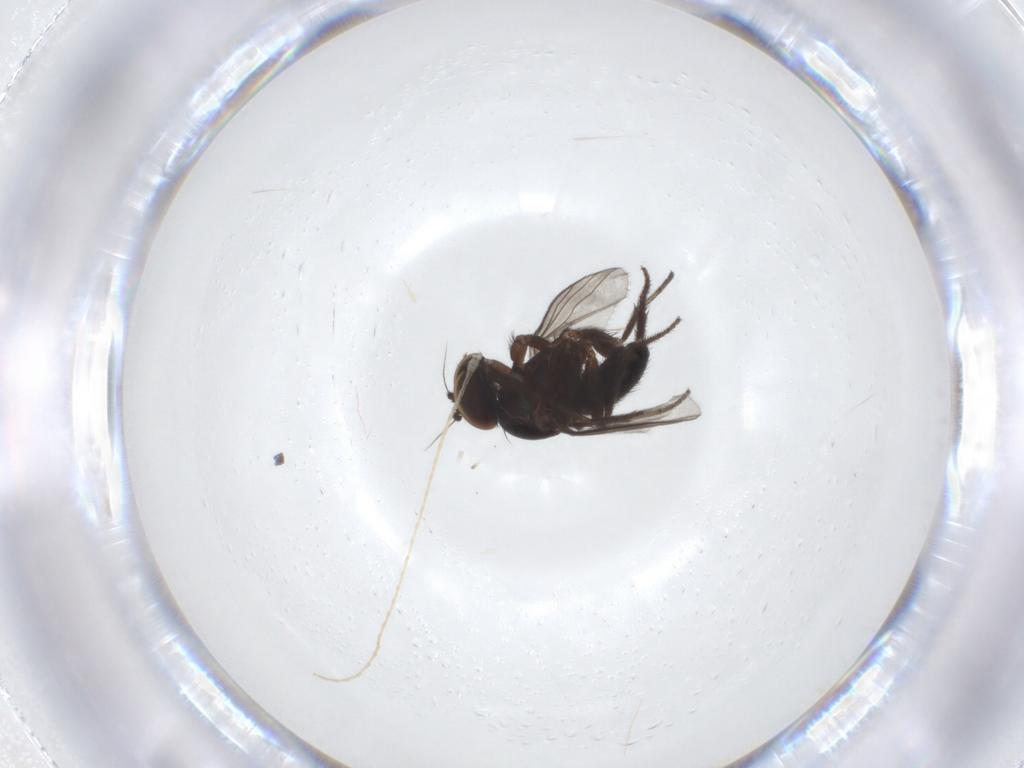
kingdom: Animalia
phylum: Arthropoda
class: Insecta
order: Diptera
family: Dolichopodidae
